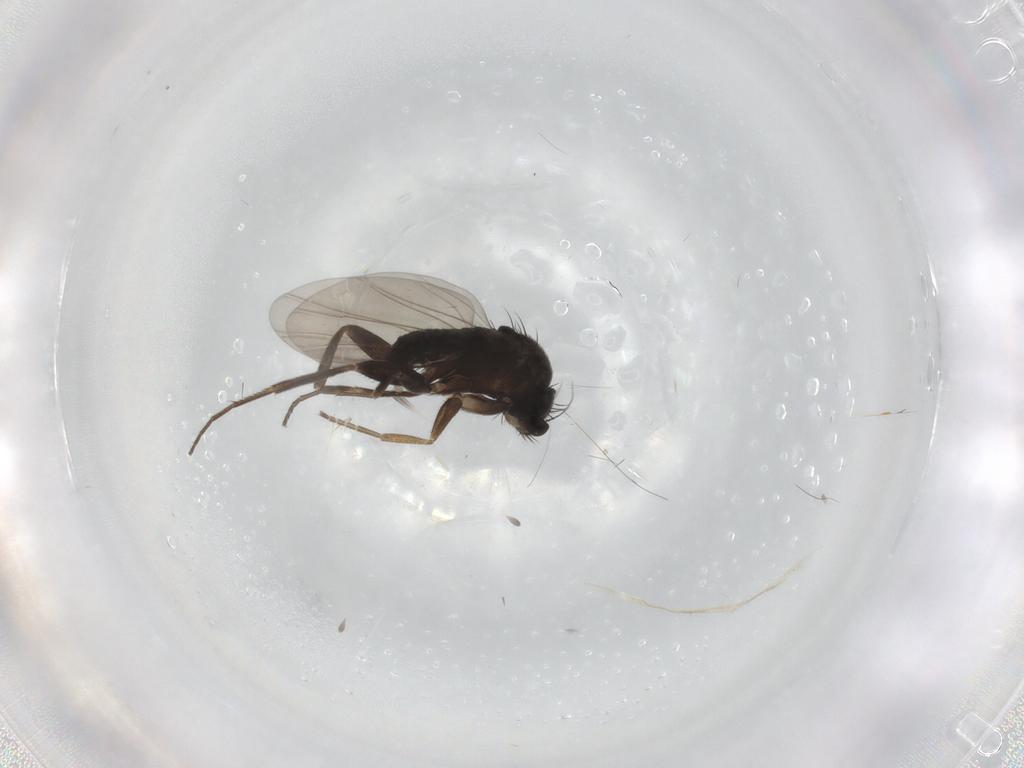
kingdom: Animalia
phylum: Arthropoda
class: Insecta
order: Diptera
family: Phoridae
